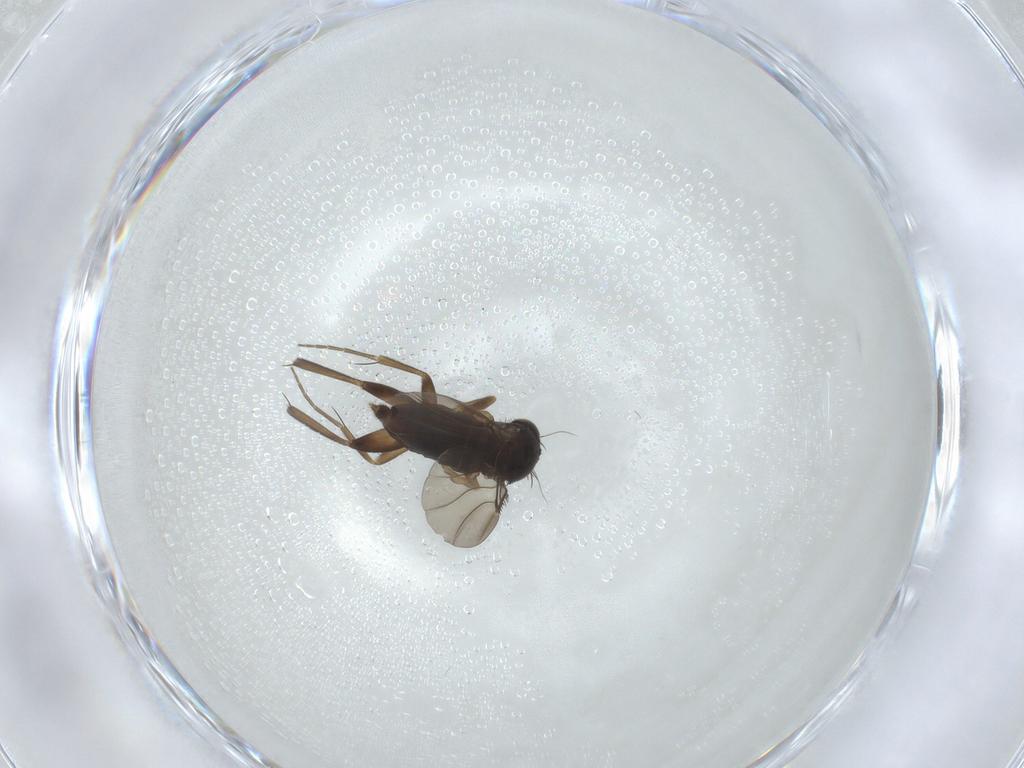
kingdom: Animalia
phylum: Arthropoda
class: Insecta
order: Diptera
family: Phoridae
